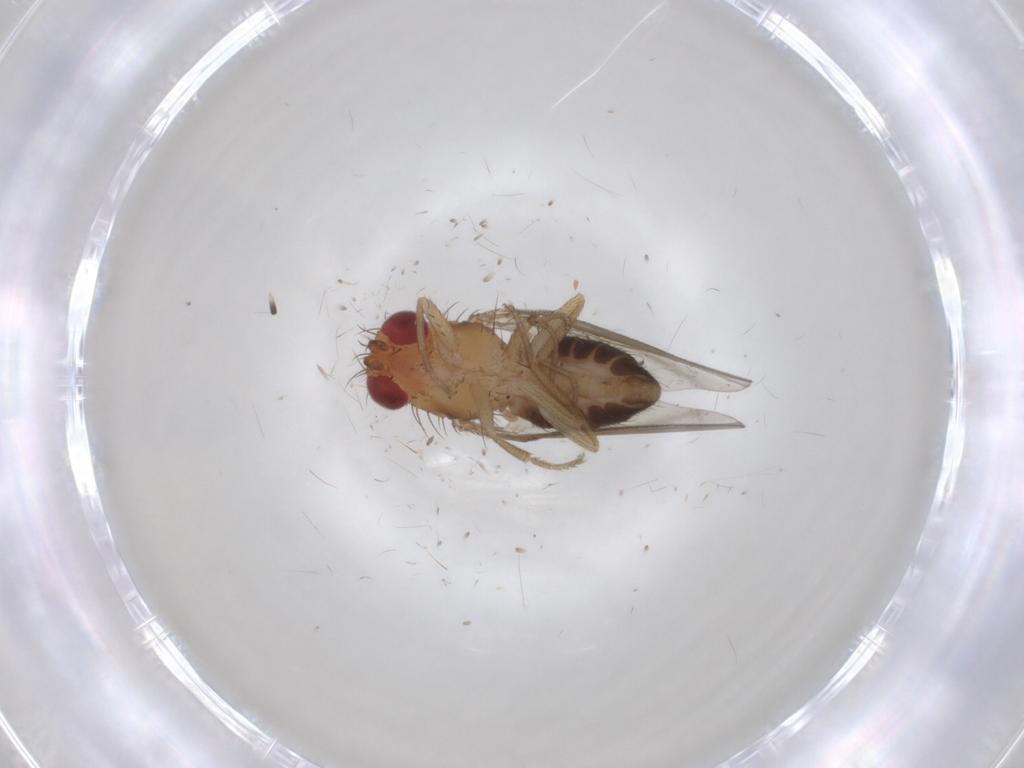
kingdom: Animalia
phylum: Arthropoda
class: Insecta
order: Diptera
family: Drosophilidae
